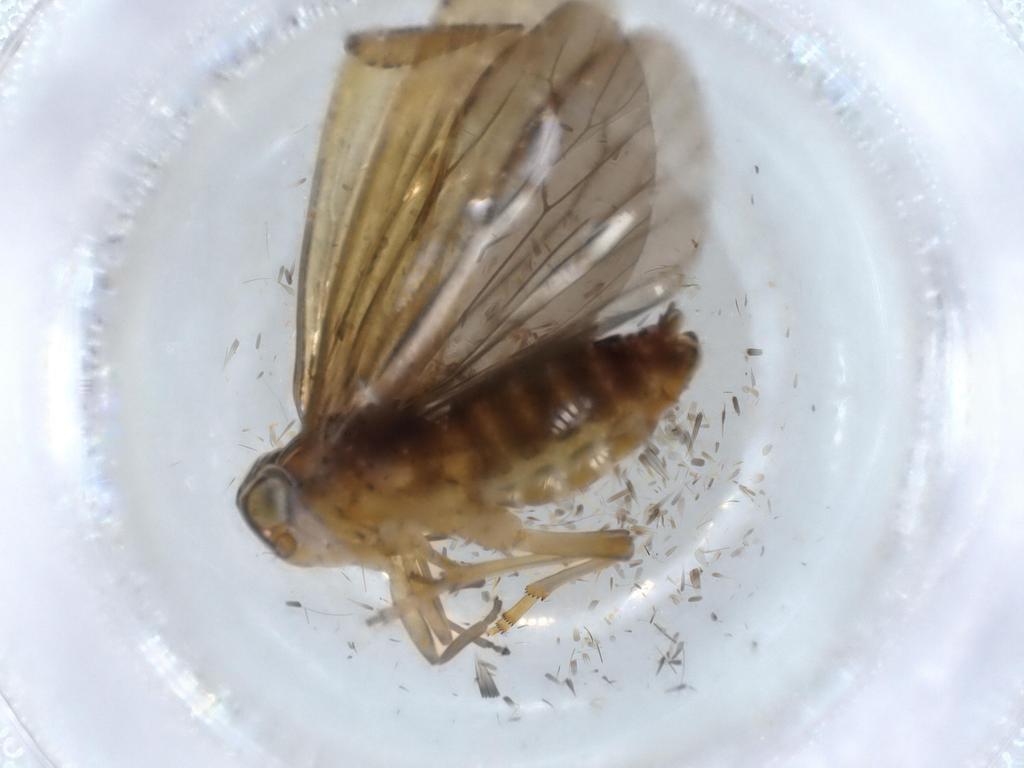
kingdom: Animalia
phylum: Arthropoda
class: Insecta
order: Hemiptera
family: Achilidae
